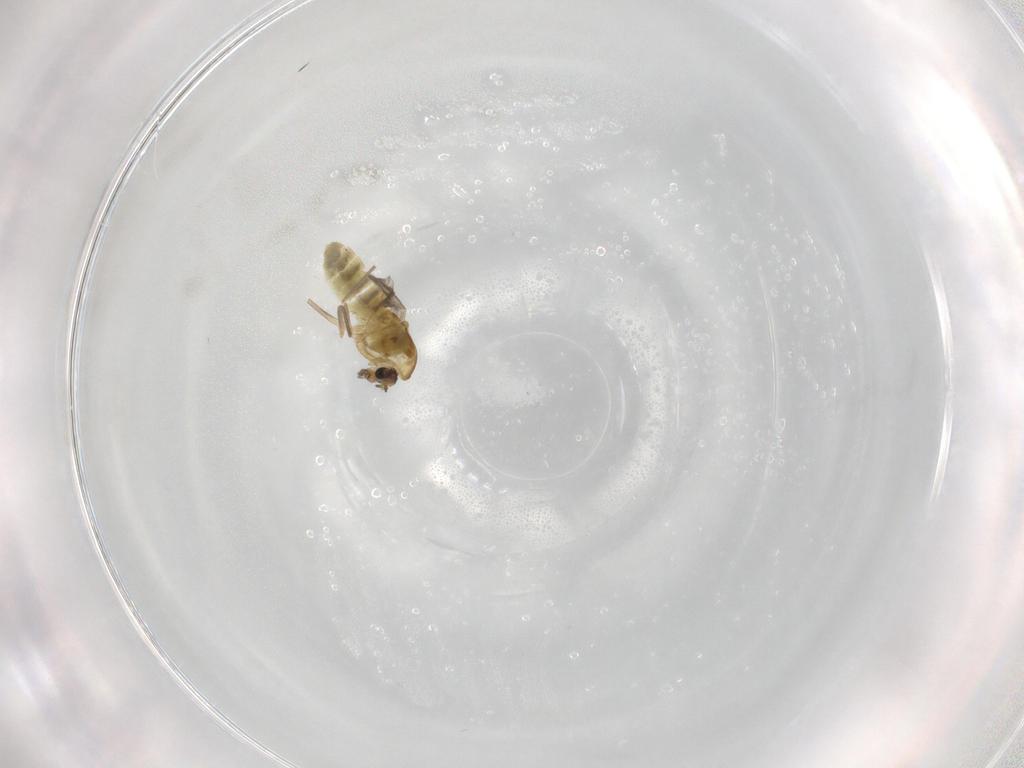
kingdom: Animalia
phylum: Arthropoda
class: Insecta
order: Diptera
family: Chironomidae
